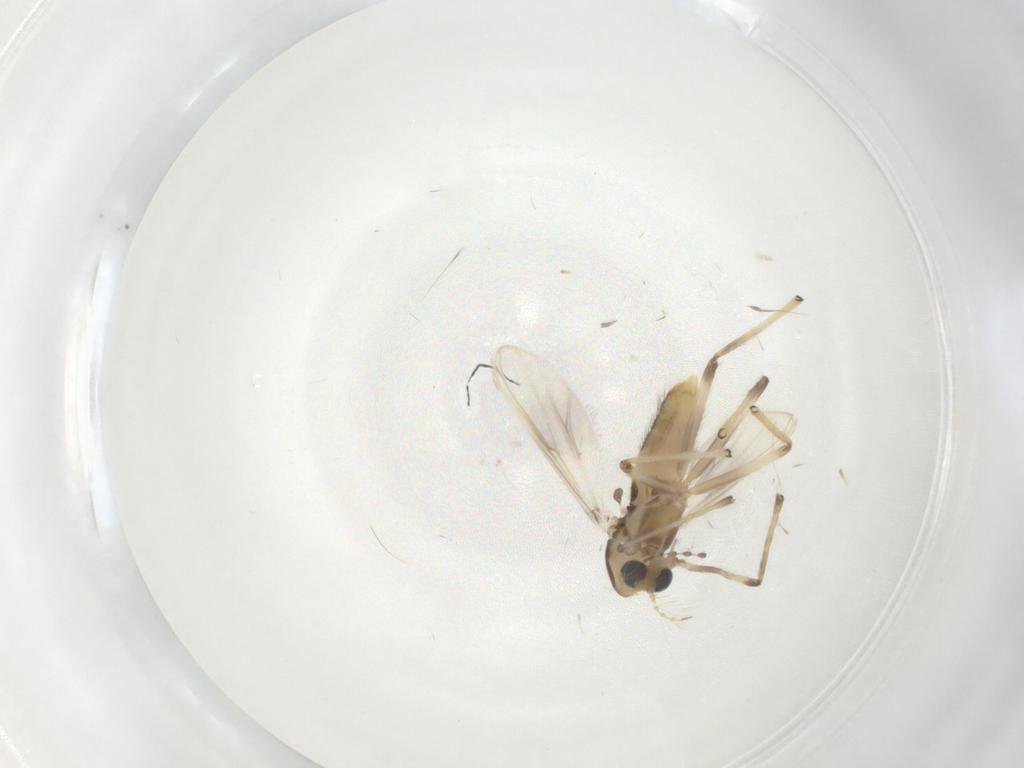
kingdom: Animalia
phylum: Arthropoda
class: Insecta
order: Diptera
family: Chironomidae
